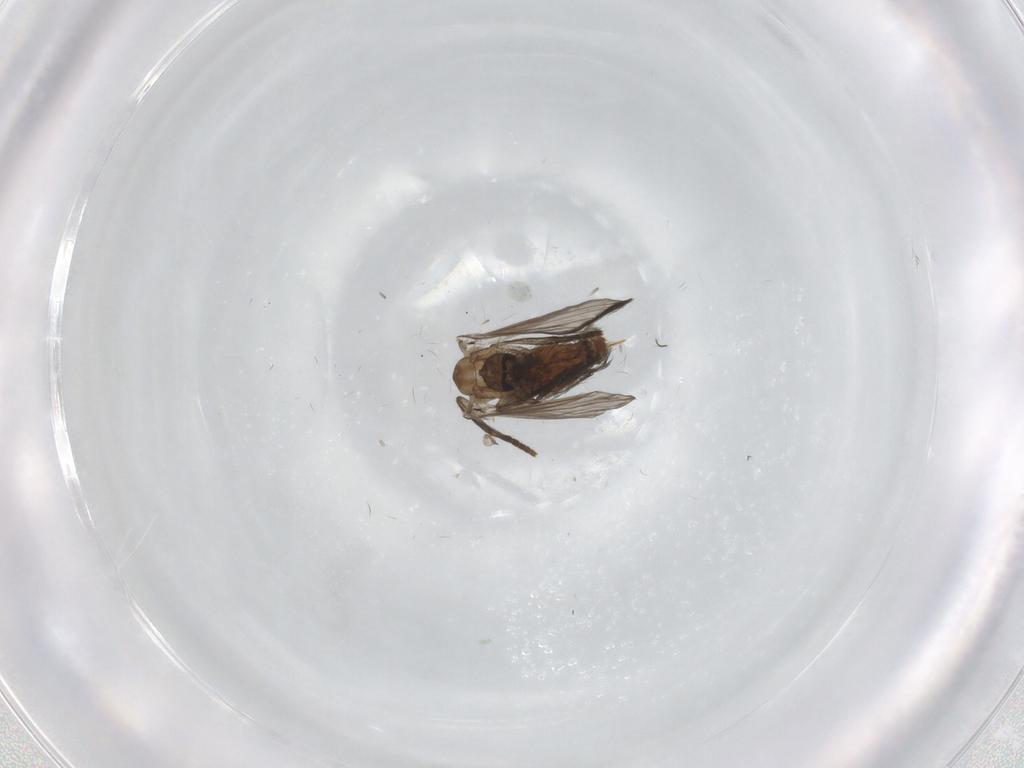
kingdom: Animalia
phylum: Arthropoda
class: Insecta
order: Diptera
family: Psychodidae
